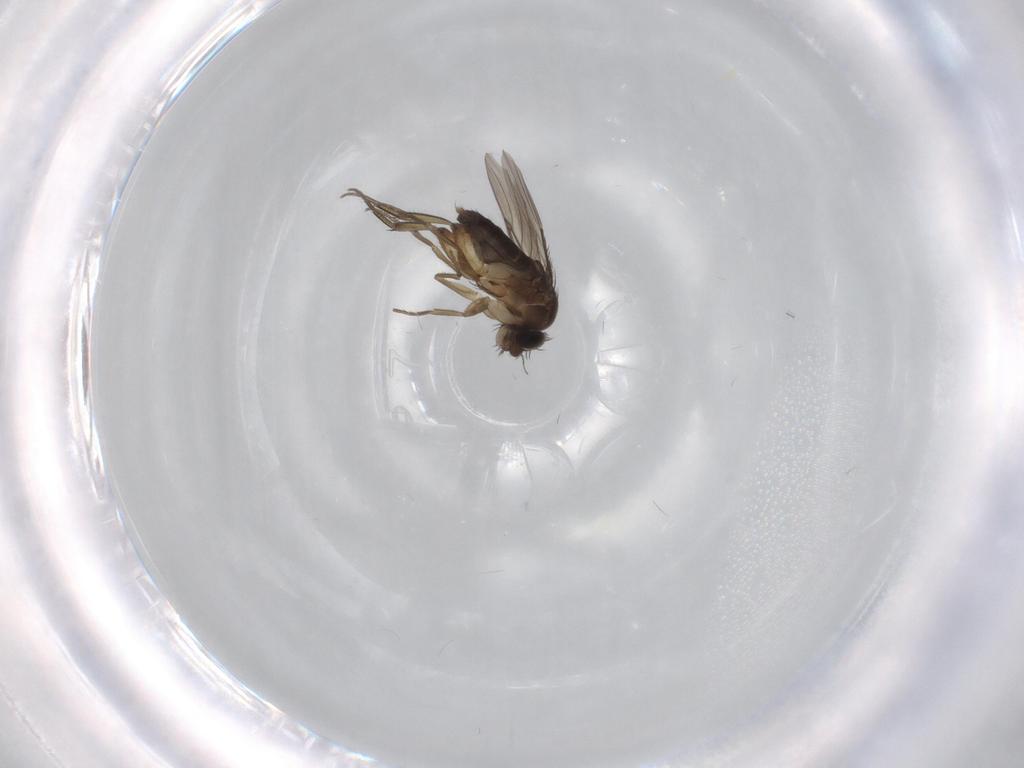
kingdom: Animalia
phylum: Arthropoda
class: Insecta
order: Diptera
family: Phoridae
